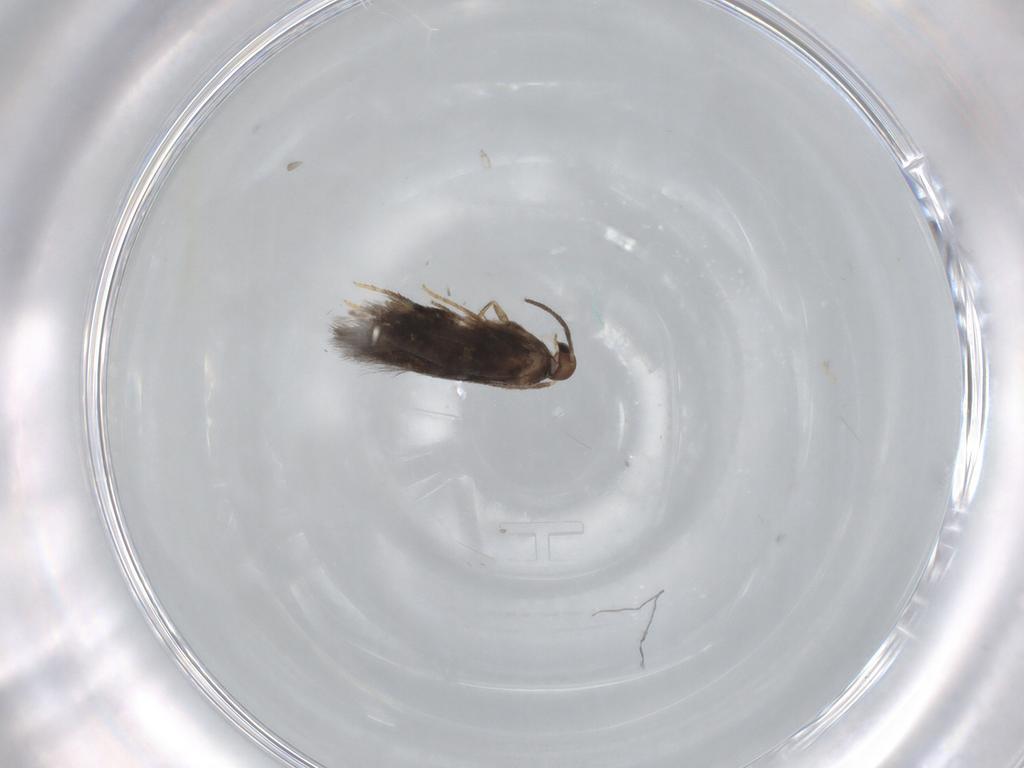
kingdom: Animalia
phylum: Arthropoda
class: Insecta
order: Lepidoptera
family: Heliozelidae
